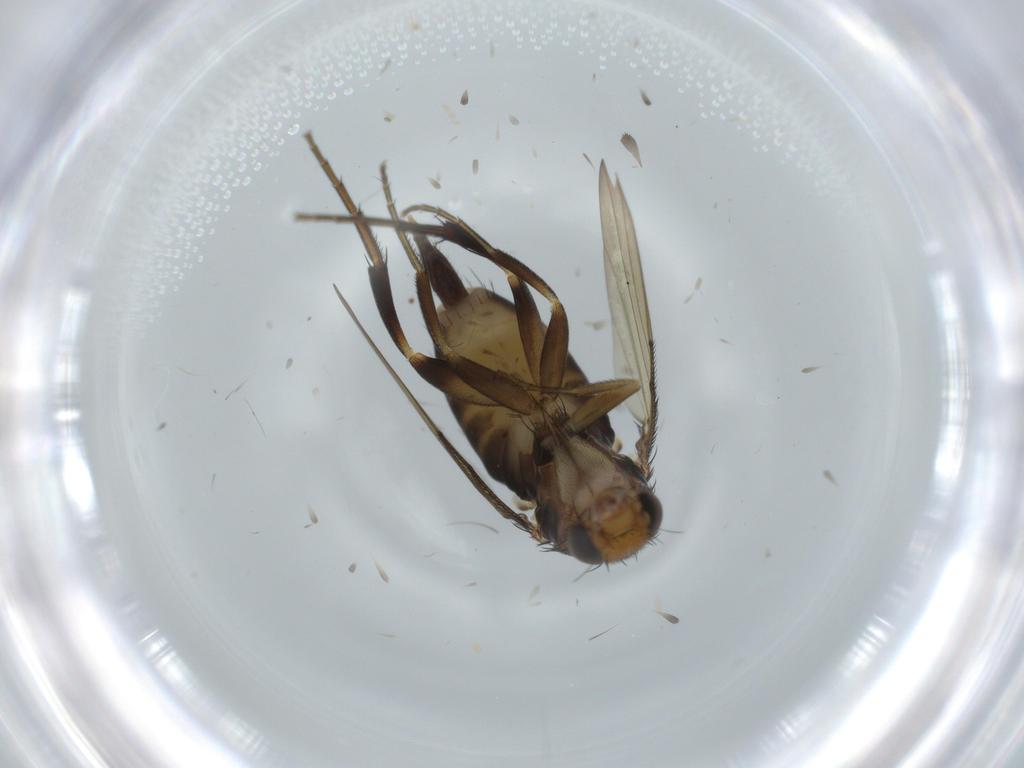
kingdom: Animalia
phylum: Arthropoda
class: Insecta
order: Diptera
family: Phoridae
